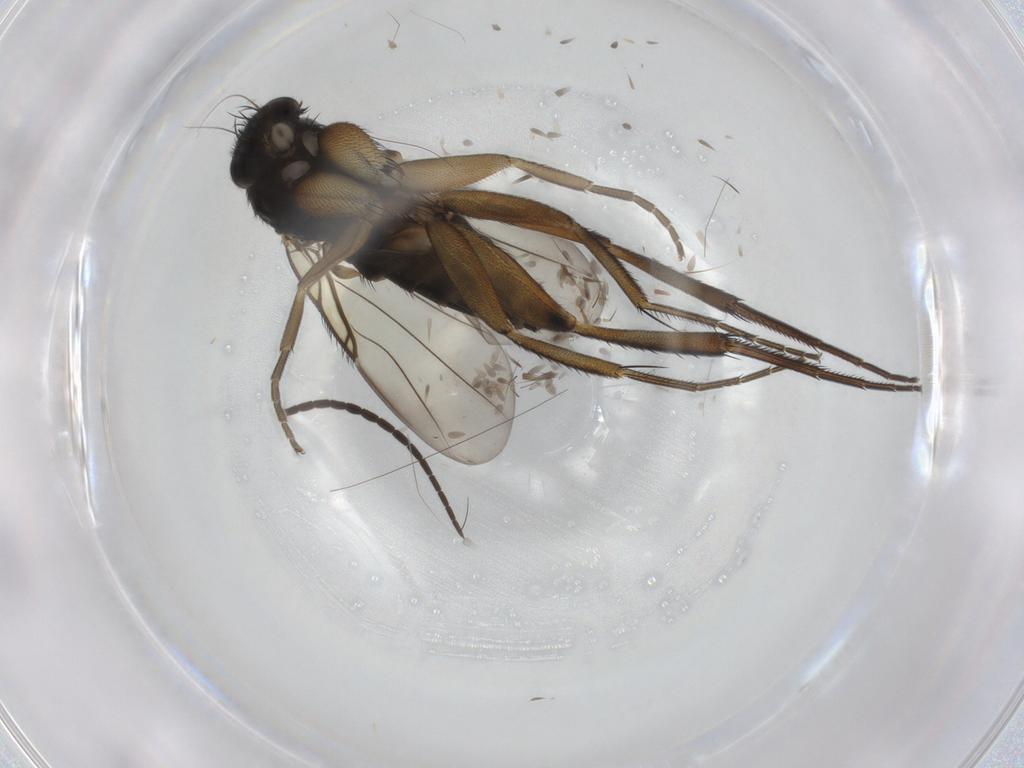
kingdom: Animalia
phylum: Arthropoda
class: Insecta
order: Diptera
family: Phoridae
